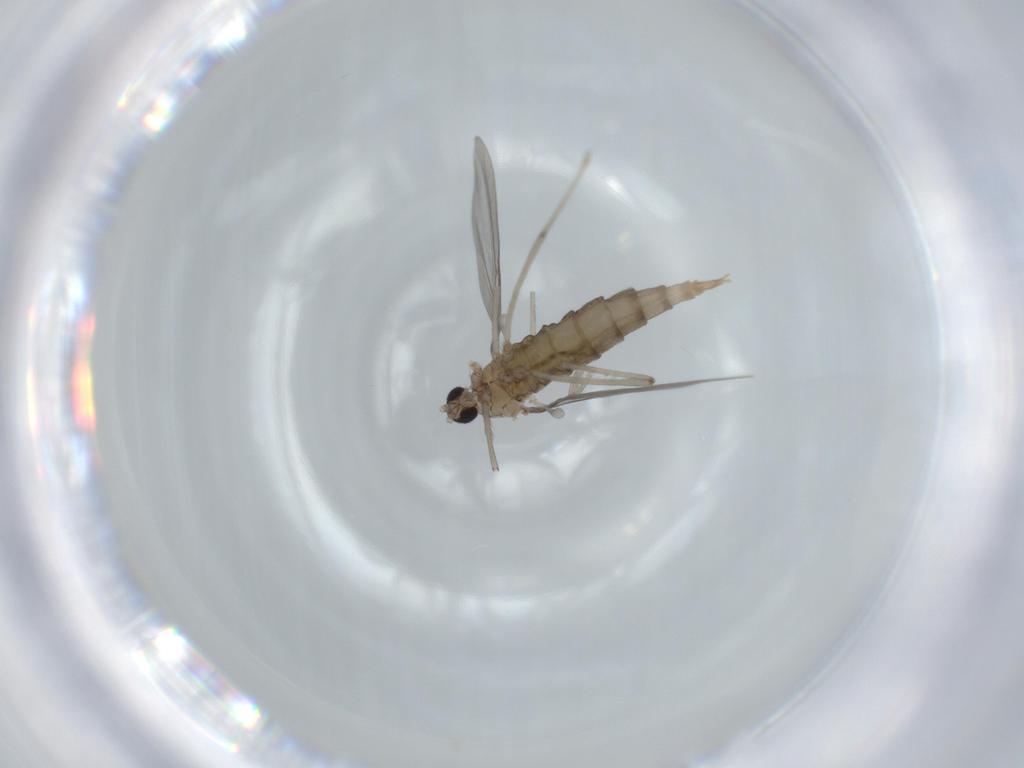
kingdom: Animalia
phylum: Arthropoda
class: Insecta
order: Diptera
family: Cecidomyiidae
